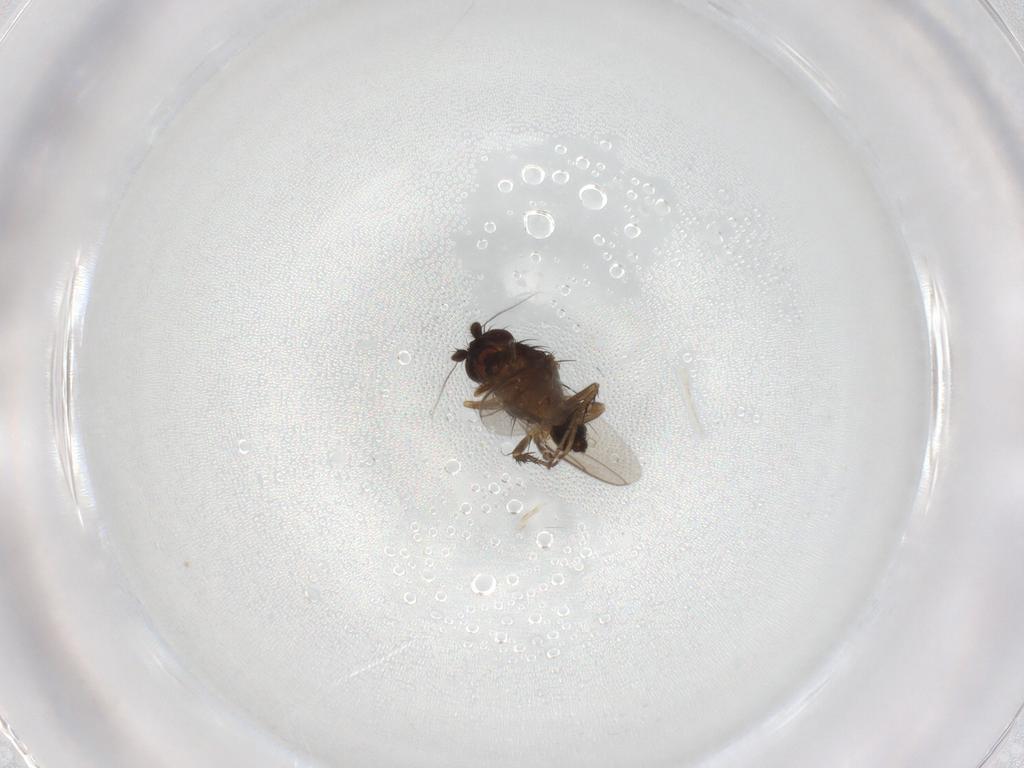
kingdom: Animalia
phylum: Arthropoda
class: Insecta
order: Diptera
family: Sphaeroceridae
